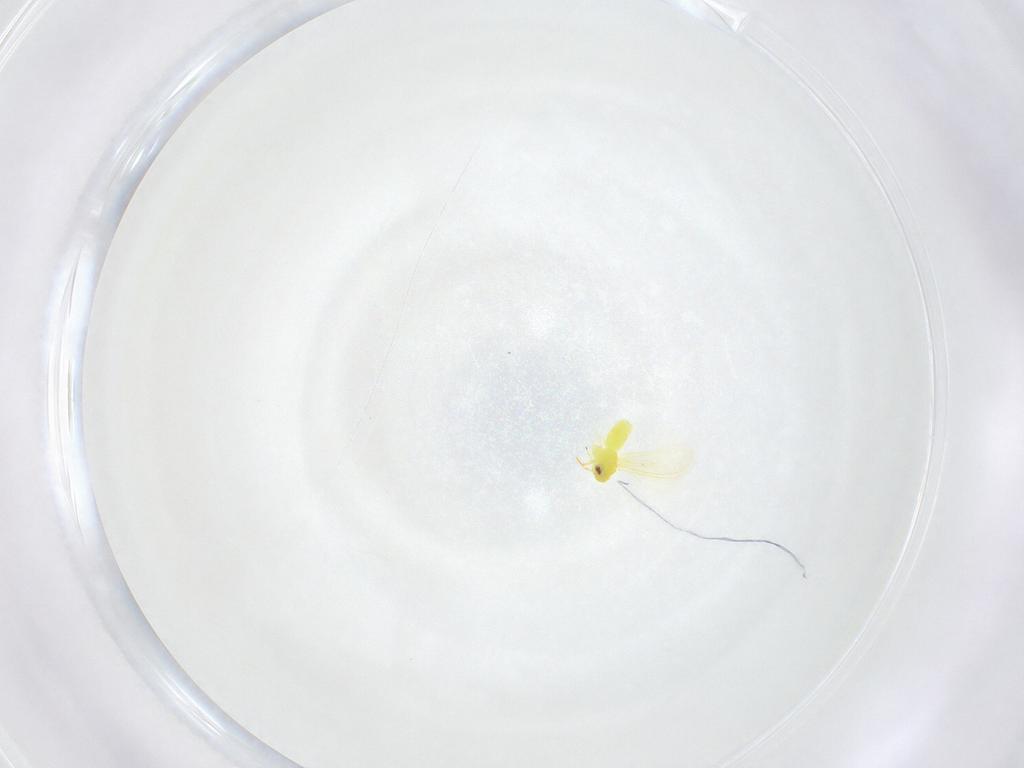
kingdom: Animalia
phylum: Arthropoda
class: Insecta
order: Hemiptera
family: Aleyrodidae
